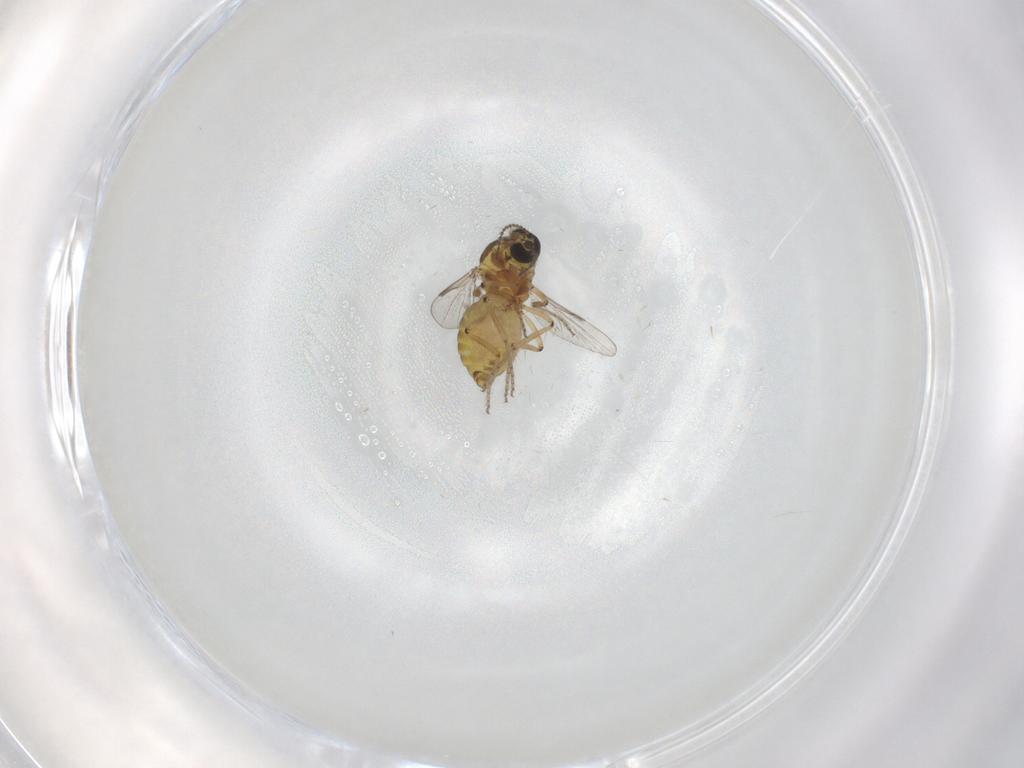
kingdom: Animalia
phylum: Arthropoda
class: Insecta
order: Diptera
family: Ceratopogonidae
